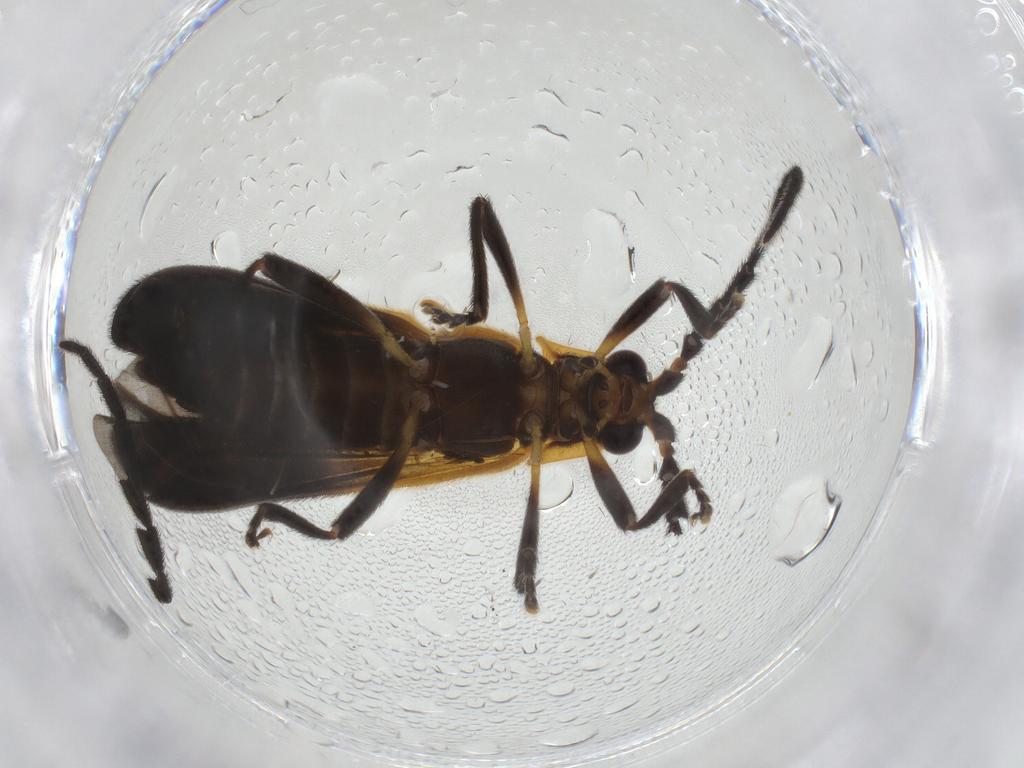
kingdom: Animalia
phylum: Arthropoda
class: Insecta
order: Coleoptera
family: Lycidae
